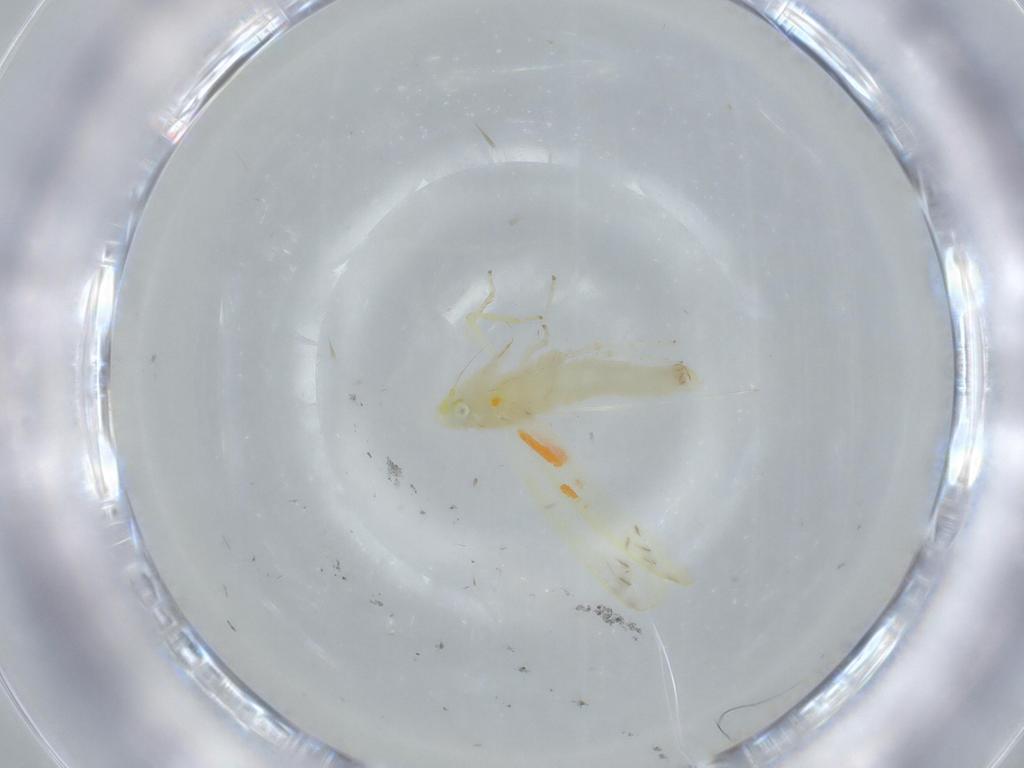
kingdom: Animalia
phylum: Arthropoda
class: Insecta
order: Hemiptera
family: Cicadellidae
